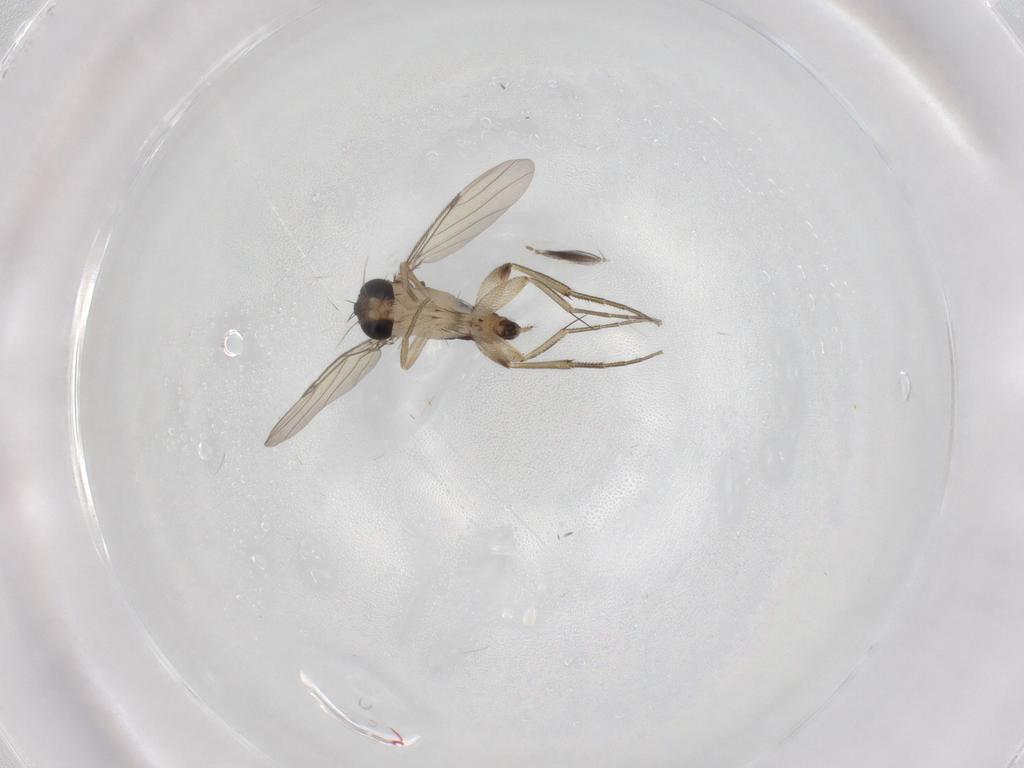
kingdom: Animalia
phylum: Arthropoda
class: Insecta
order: Diptera
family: Phoridae
